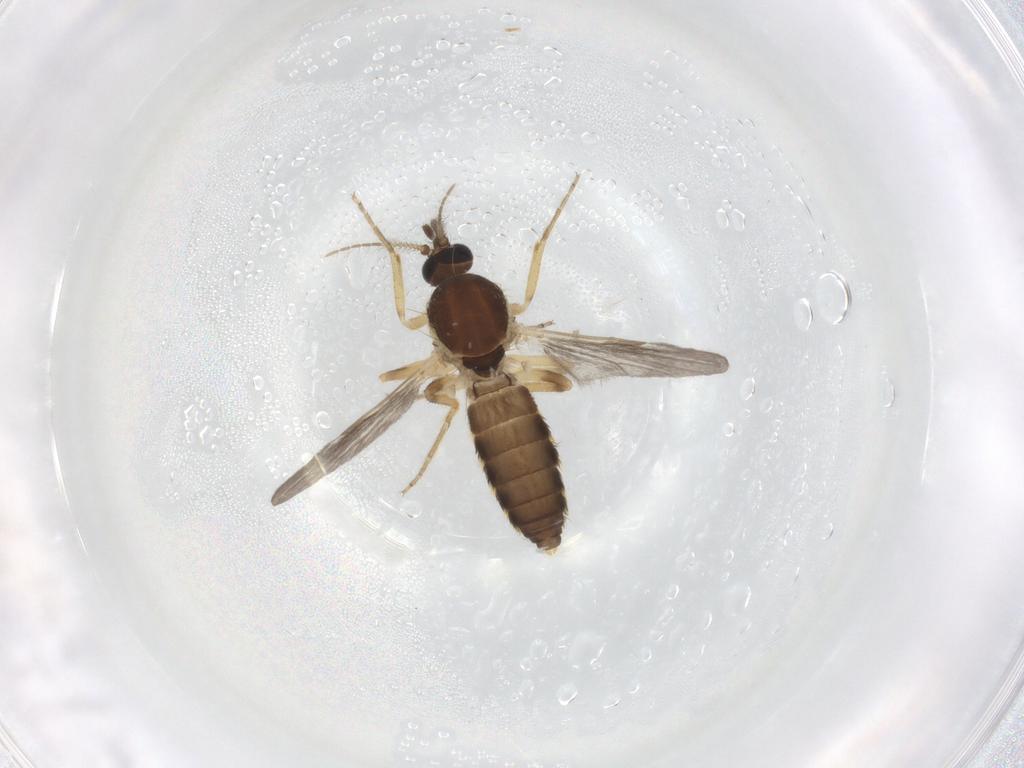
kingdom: Animalia
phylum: Arthropoda
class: Insecta
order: Diptera
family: Ceratopogonidae
